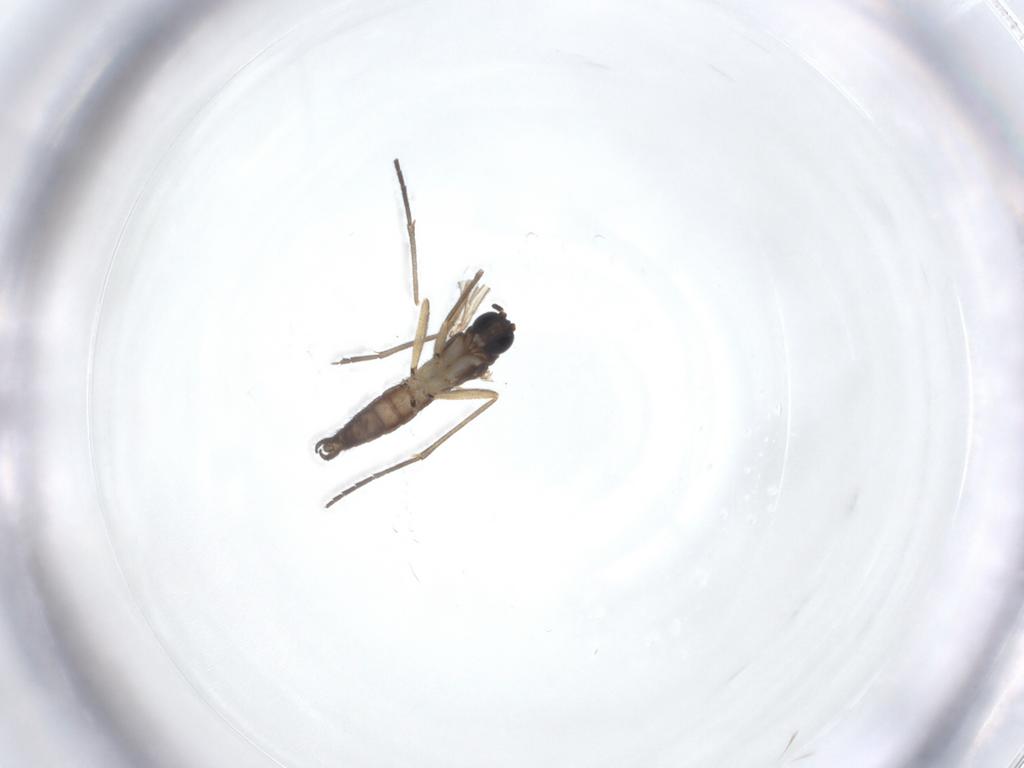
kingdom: Animalia
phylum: Arthropoda
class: Insecta
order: Diptera
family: Sciaridae
